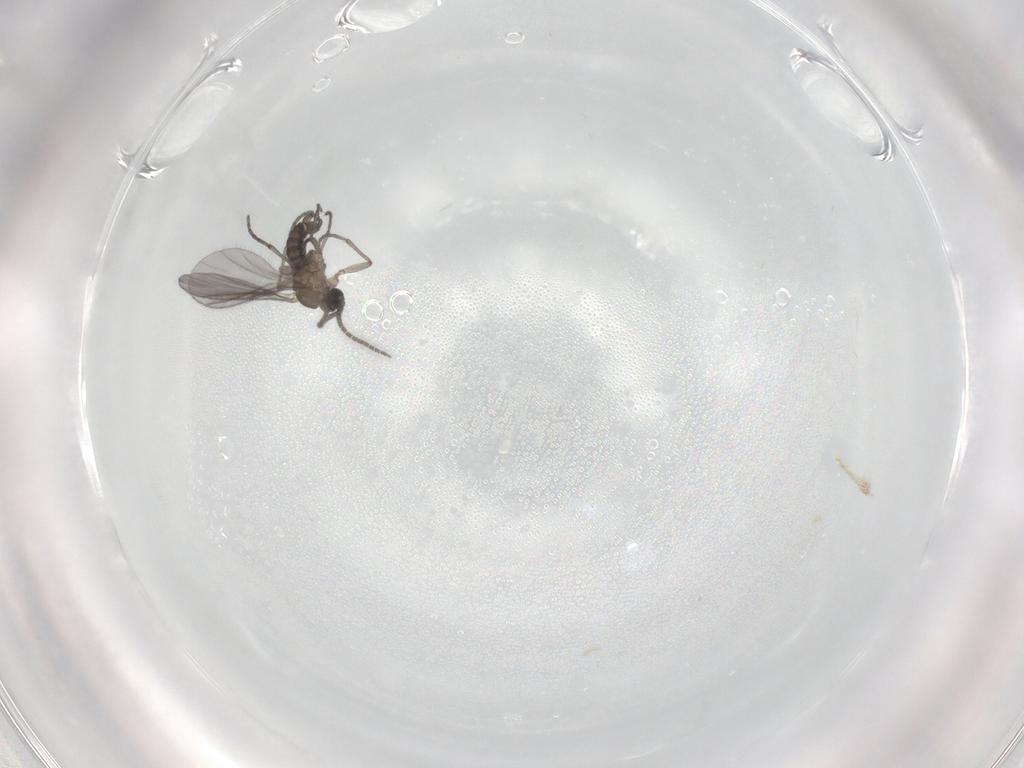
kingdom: Animalia
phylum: Arthropoda
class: Insecta
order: Diptera
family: Sciaridae
